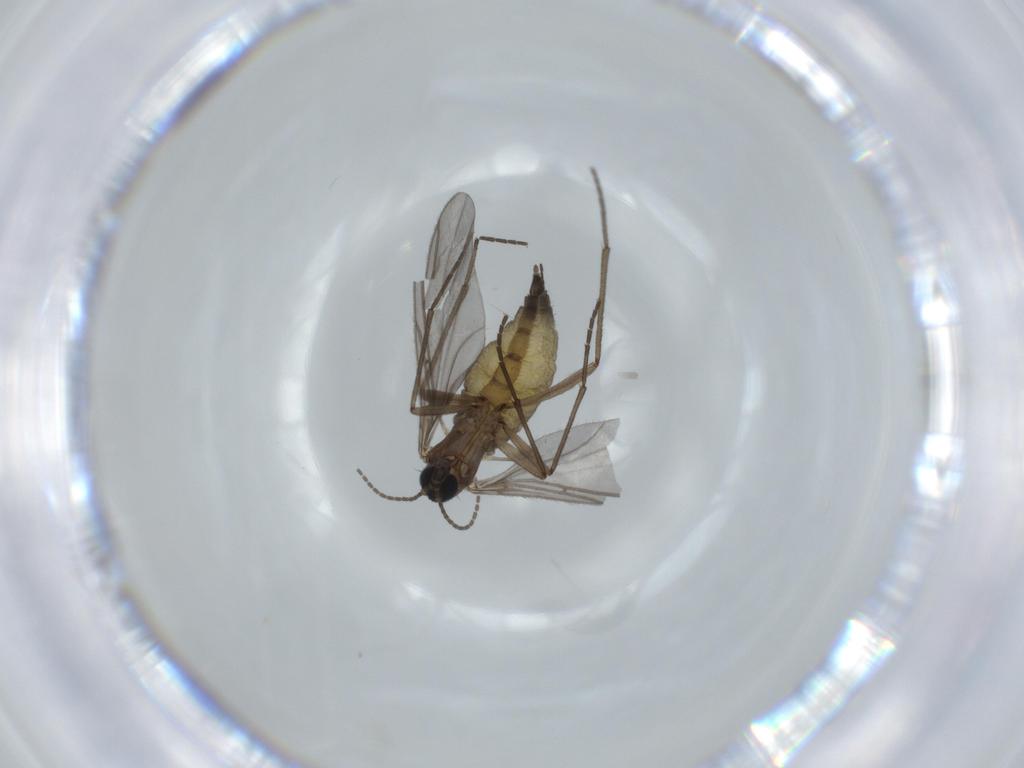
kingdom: Animalia
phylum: Arthropoda
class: Insecta
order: Diptera
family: Sciaridae
